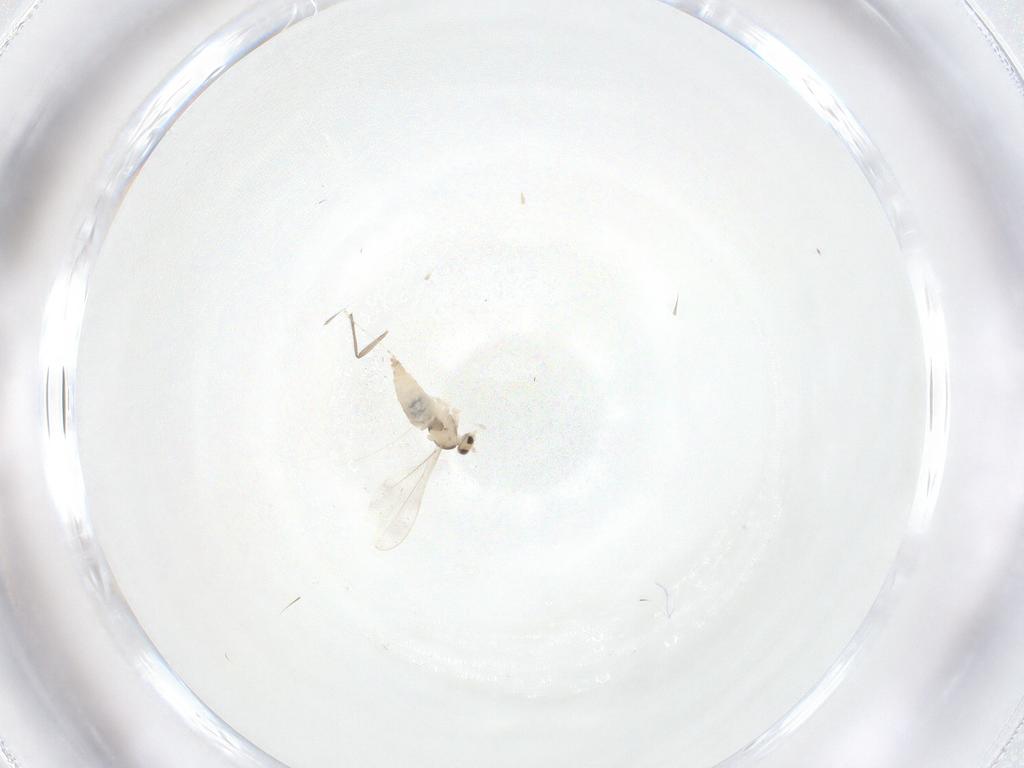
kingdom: Animalia
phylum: Arthropoda
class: Insecta
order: Diptera
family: Cecidomyiidae
